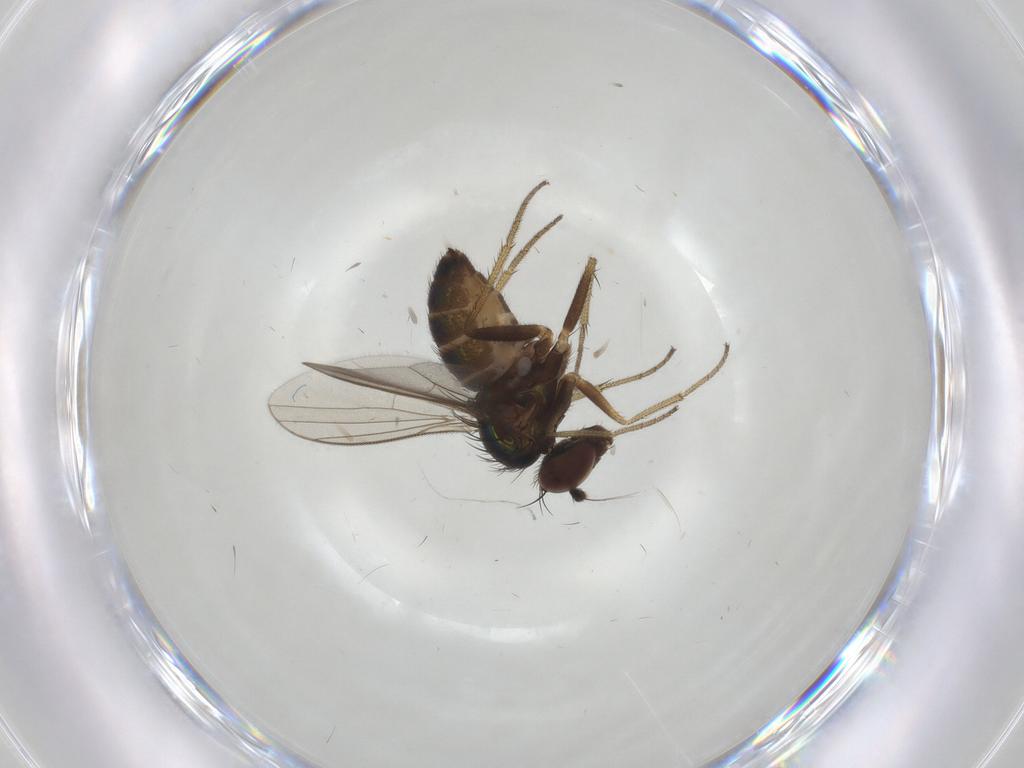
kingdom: Animalia
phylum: Arthropoda
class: Insecta
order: Diptera
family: Dolichopodidae
